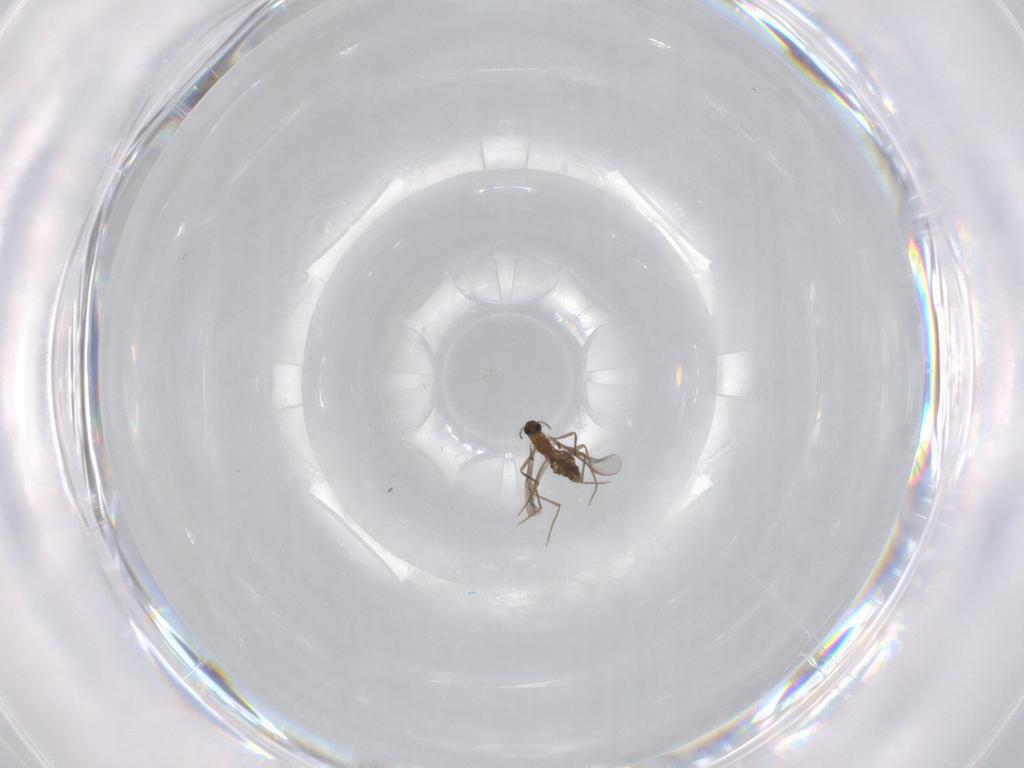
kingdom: Animalia
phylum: Arthropoda
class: Insecta
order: Diptera
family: Chironomidae
